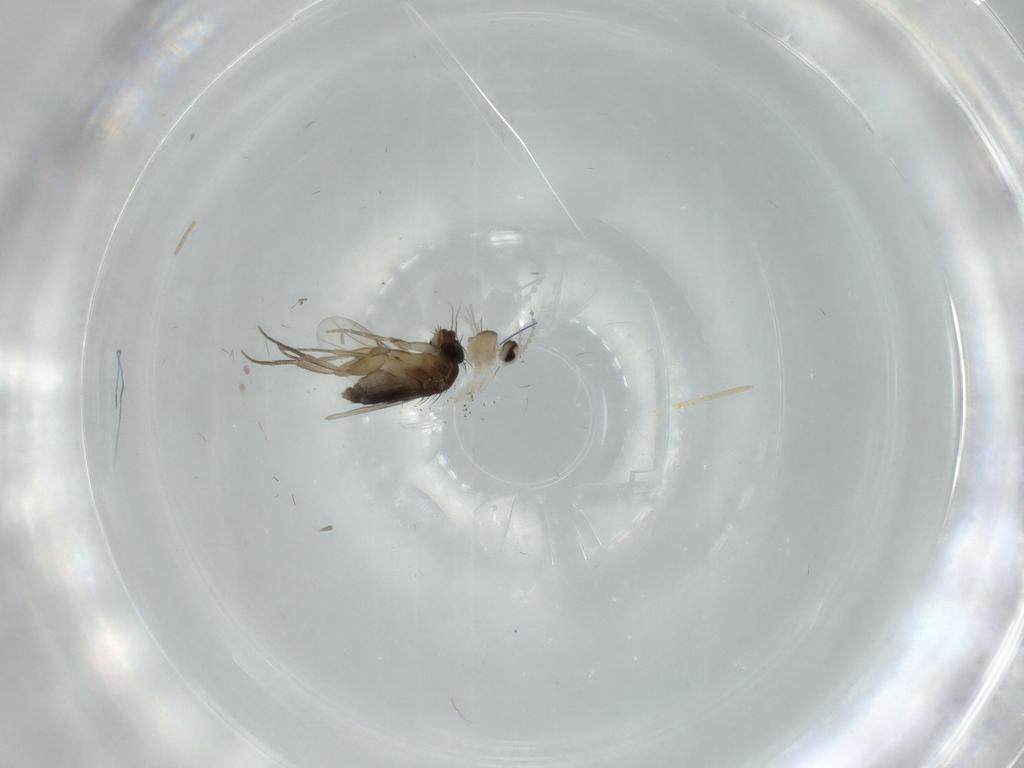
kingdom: Animalia
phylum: Arthropoda
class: Insecta
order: Diptera
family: Cecidomyiidae
